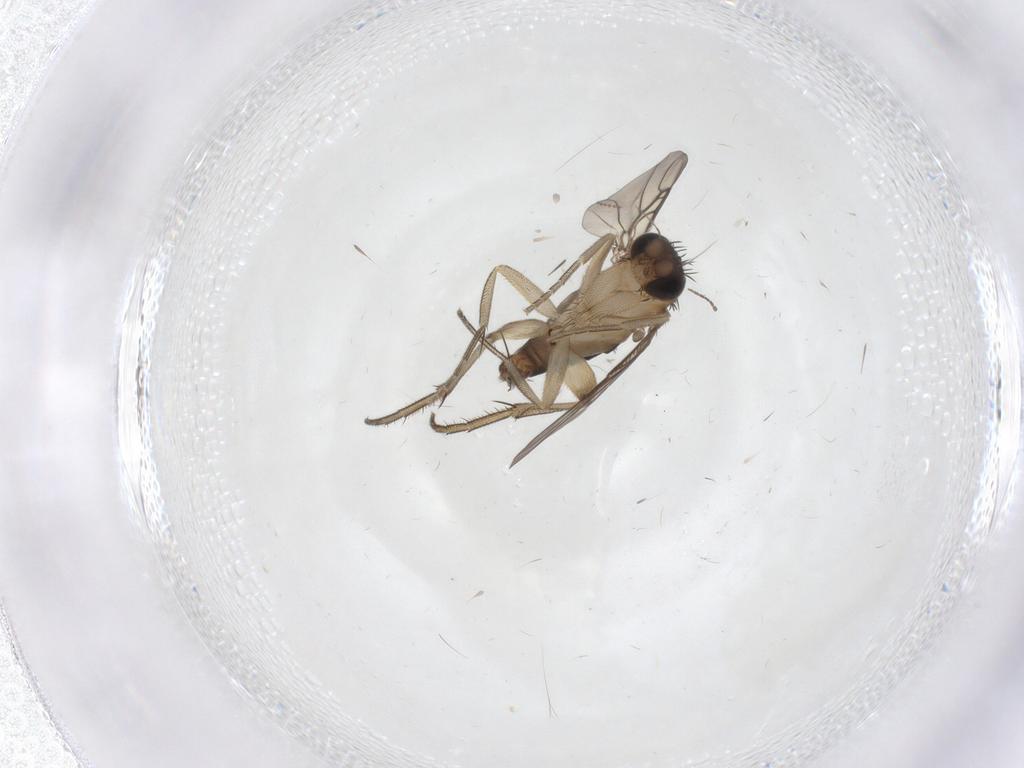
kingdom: Animalia
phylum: Arthropoda
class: Insecta
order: Diptera
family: Phoridae
